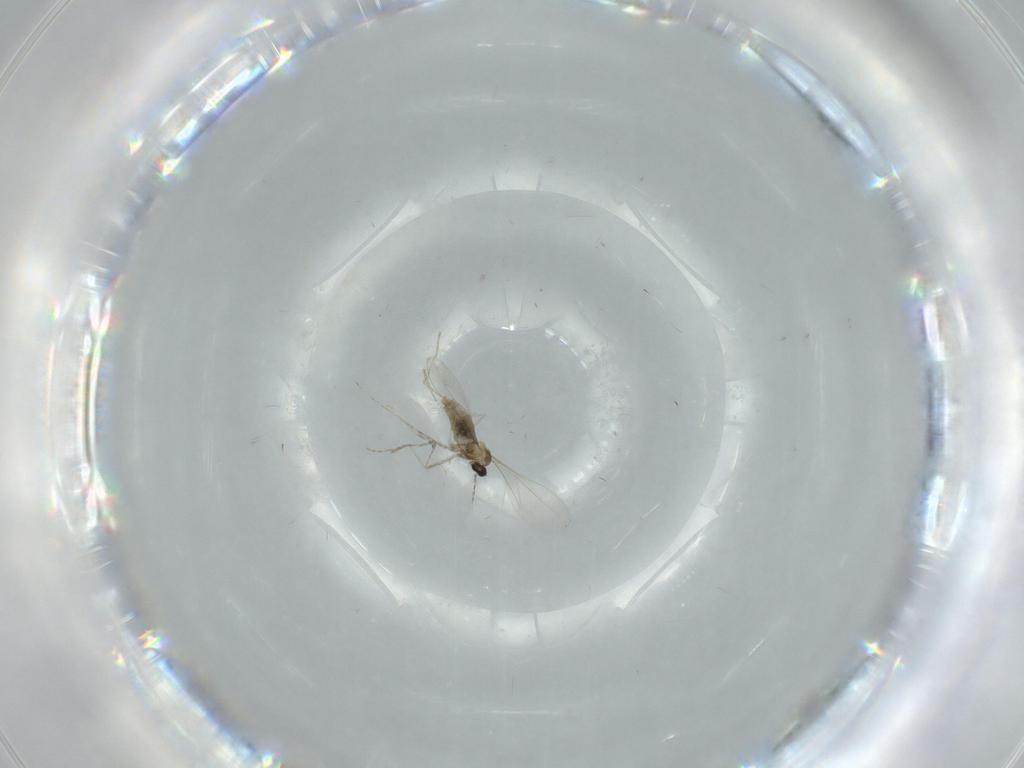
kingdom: Animalia
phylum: Arthropoda
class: Insecta
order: Diptera
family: Cecidomyiidae
